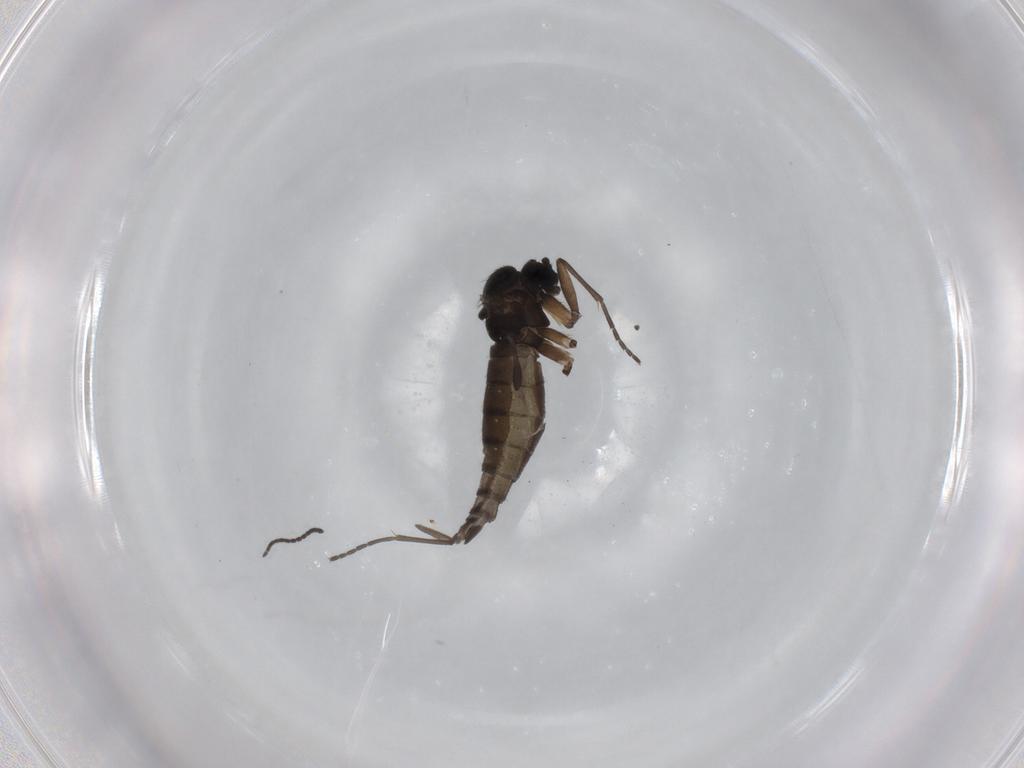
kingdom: Animalia
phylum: Arthropoda
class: Insecta
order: Diptera
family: Sciaridae
